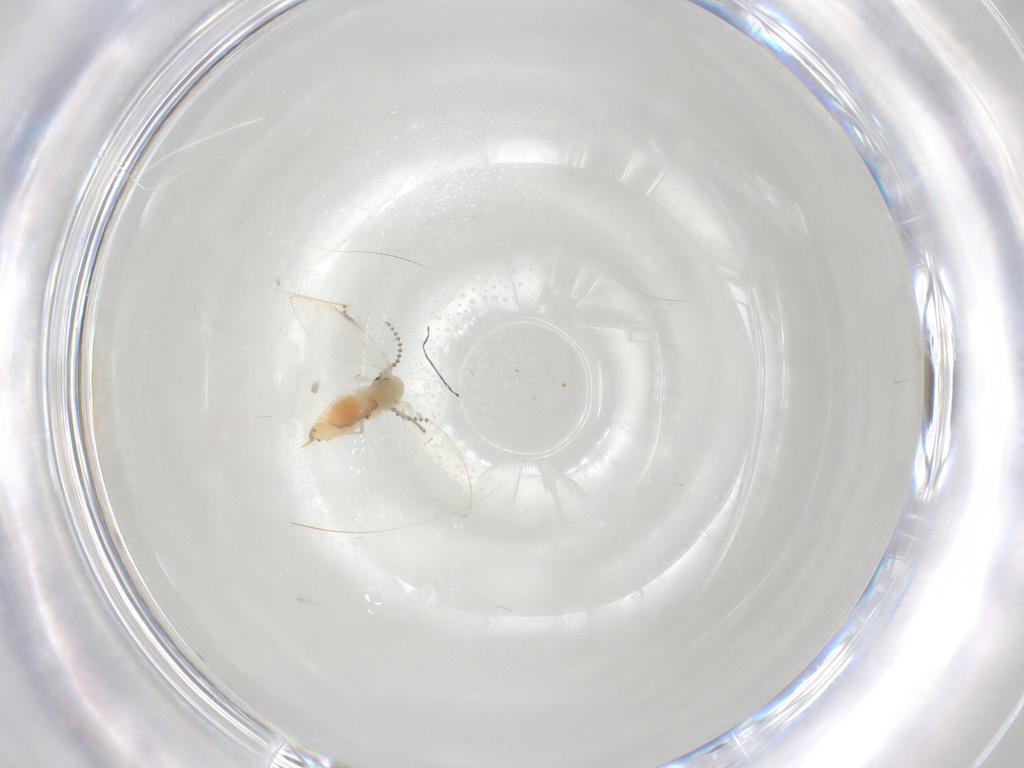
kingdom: Animalia
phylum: Arthropoda
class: Insecta
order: Diptera
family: Psychodidae
